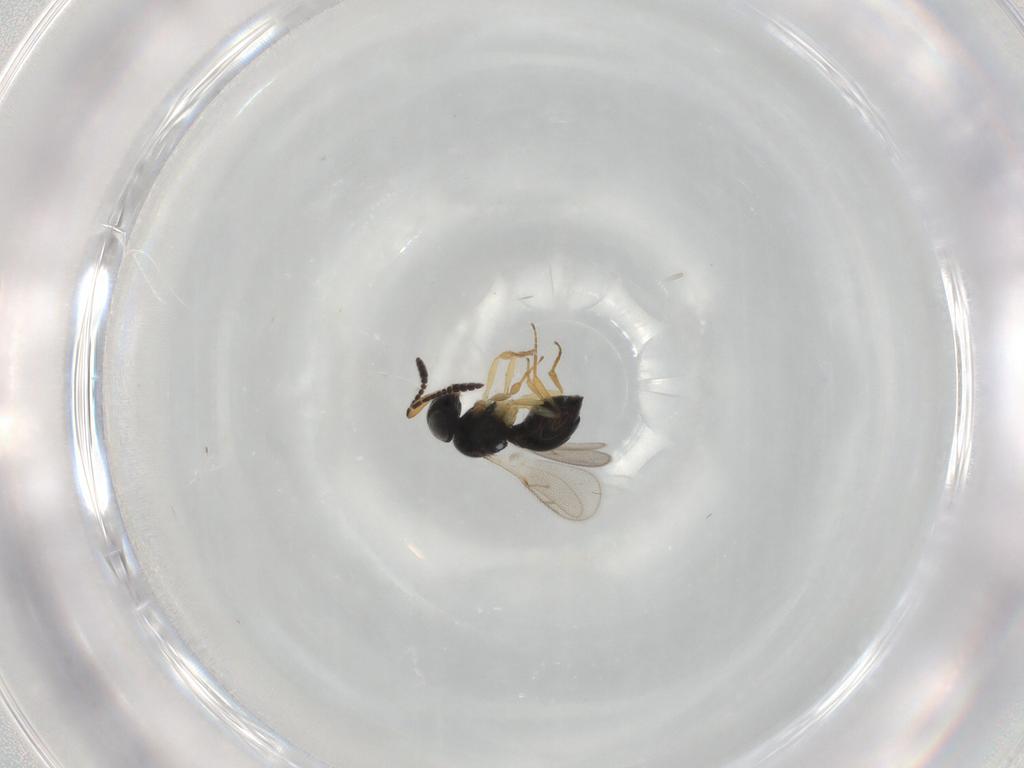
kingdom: Animalia
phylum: Arthropoda
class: Insecta
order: Hymenoptera
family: Scelionidae
